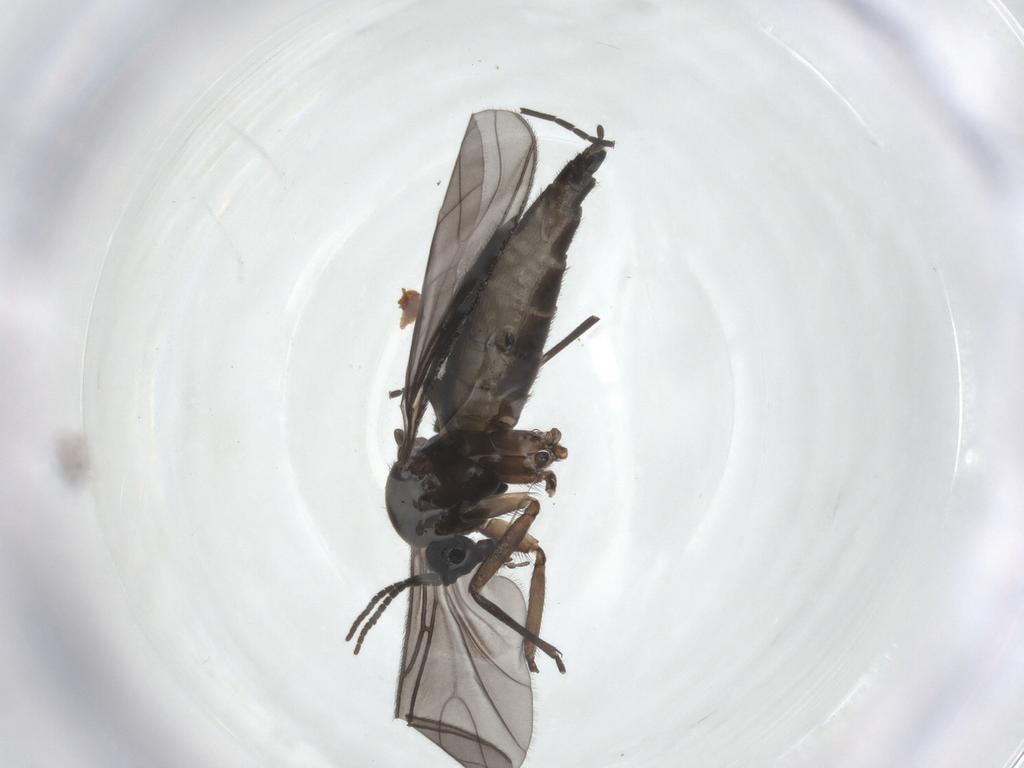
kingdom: Animalia
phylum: Arthropoda
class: Insecta
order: Diptera
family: Sciaridae
